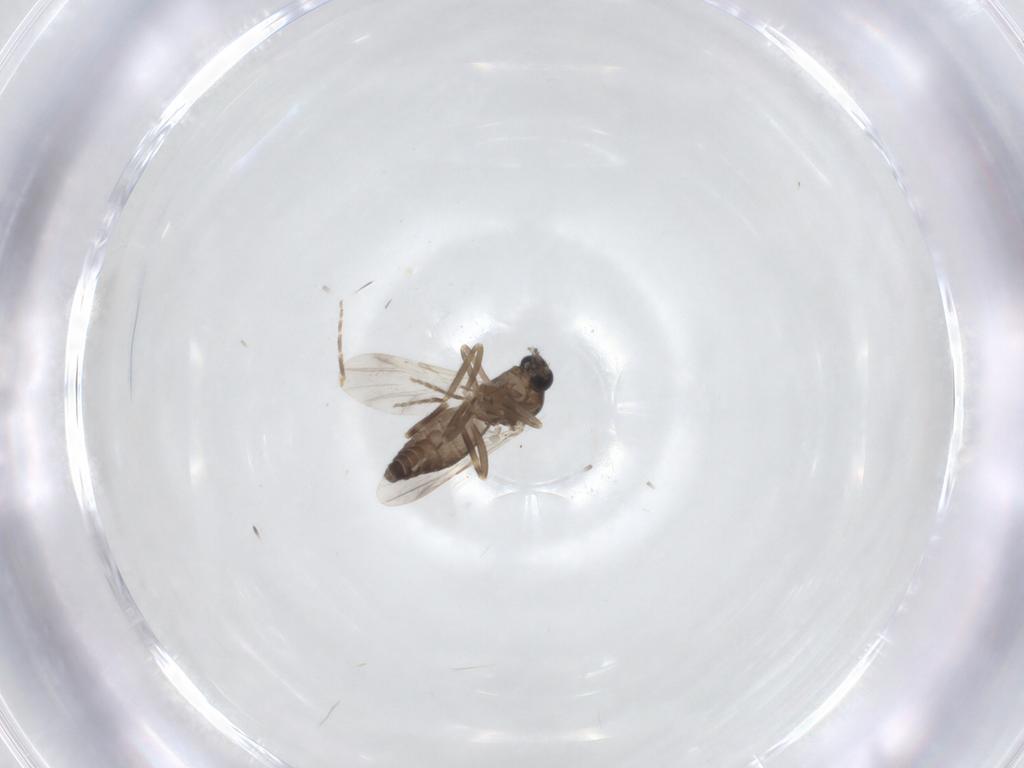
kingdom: Animalia
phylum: Arthropoda
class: Insecta
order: Diptera
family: Ceratopogonidae
